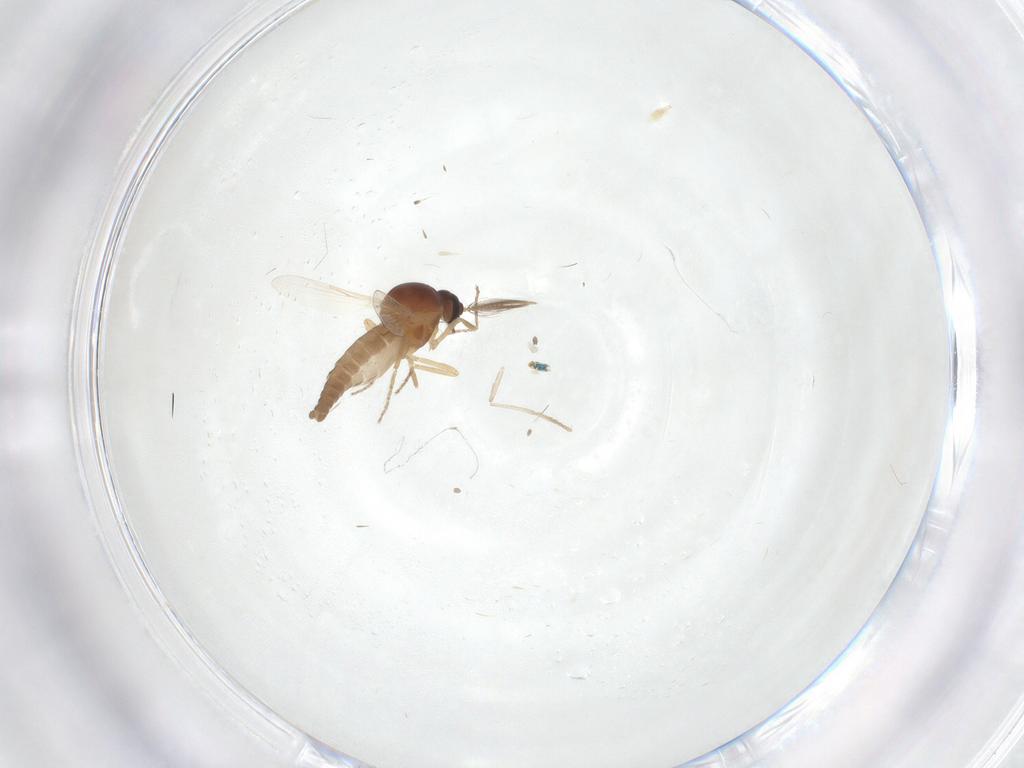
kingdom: Animalia
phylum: Arthropoda
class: Insecta
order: Diptera
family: Ceratopogonidae
